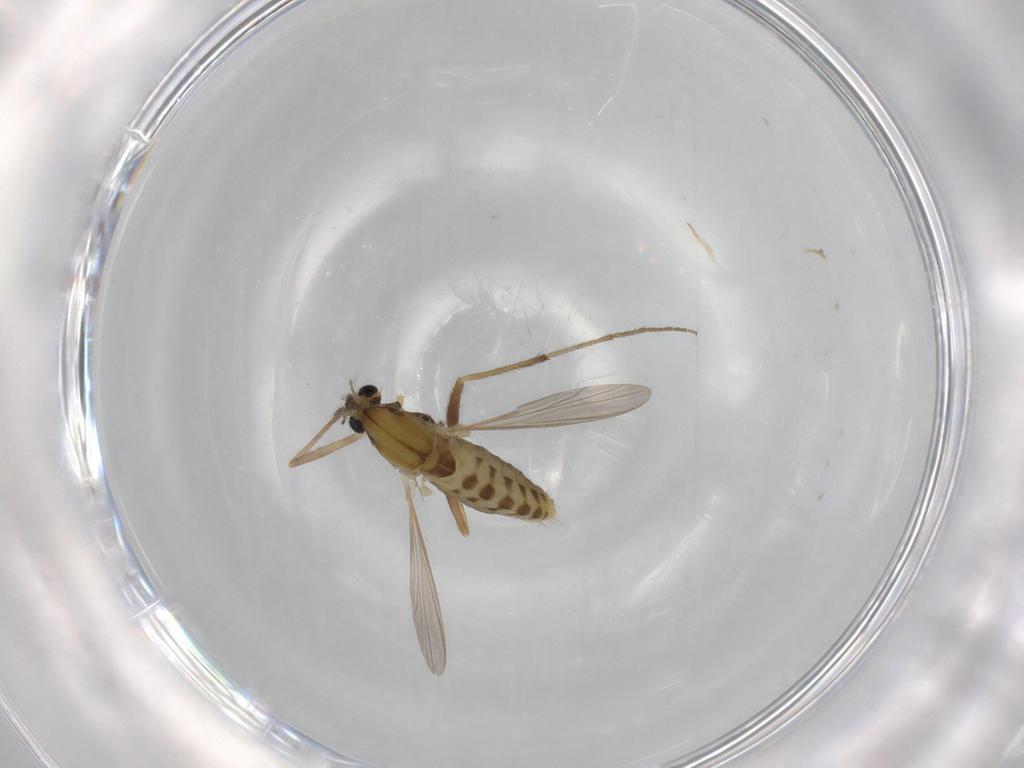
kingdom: Animalia
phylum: Arthropoda
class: Insecta
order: Diptera
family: Chironomidae
